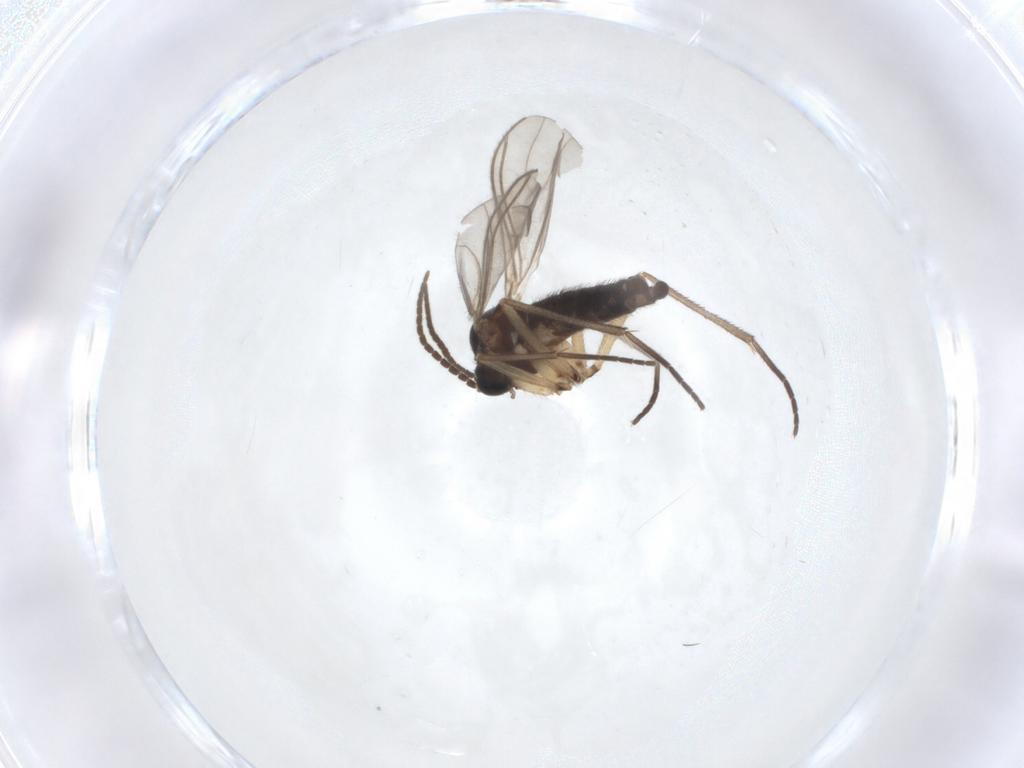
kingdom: Animalia
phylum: Arthropoda
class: Insecta
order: Diptera
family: Sciaridae
